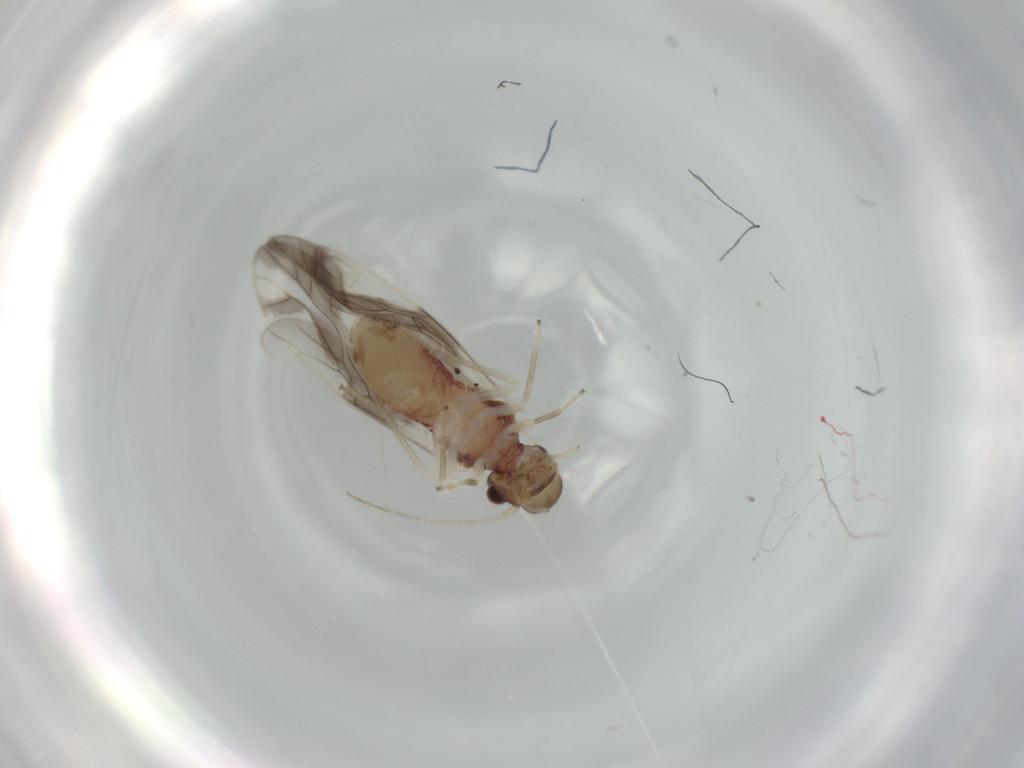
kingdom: Animalia
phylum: Arthropoda
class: Insecta
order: Psocodea
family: Caeciliusidae
